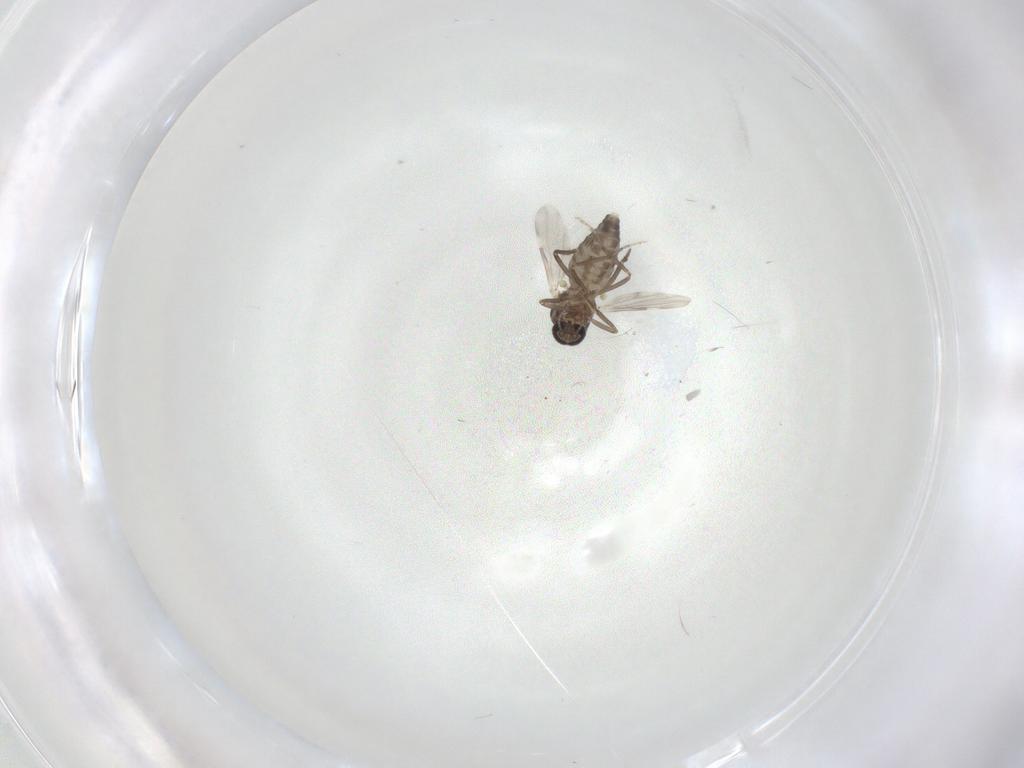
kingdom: Animalia
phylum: Arthropoda
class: Insecta
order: Diptera
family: Ceratopogonidae
